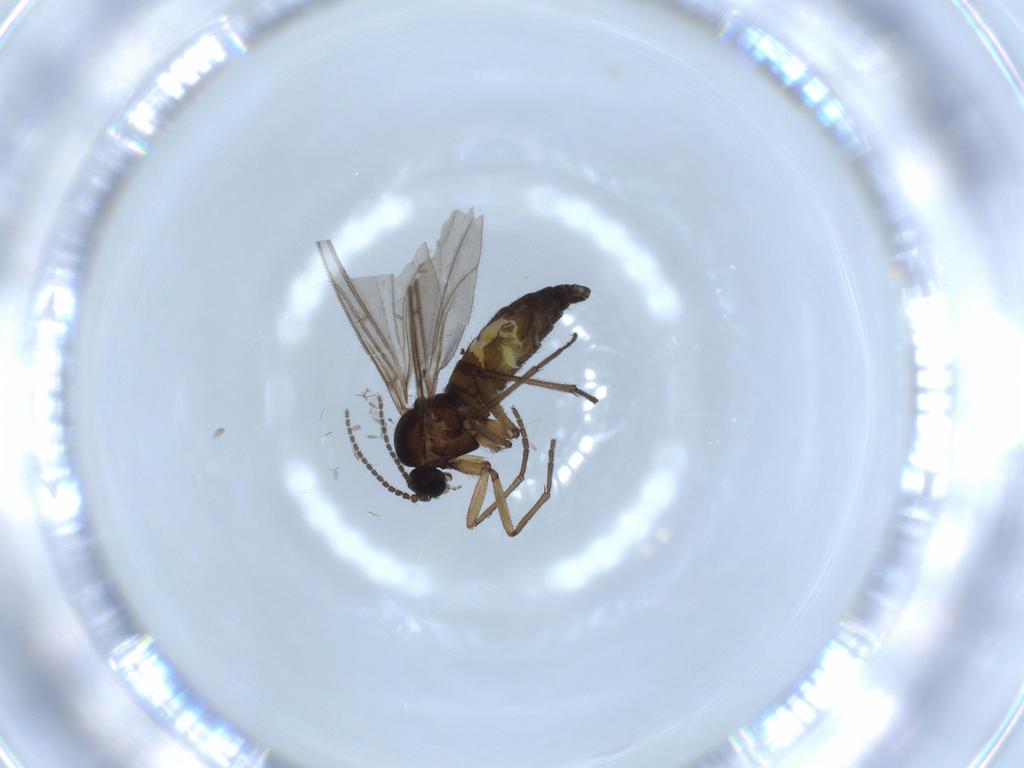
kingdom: Animalia
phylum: Arthropoda
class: Insecta
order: Diptera
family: Sciaridae
